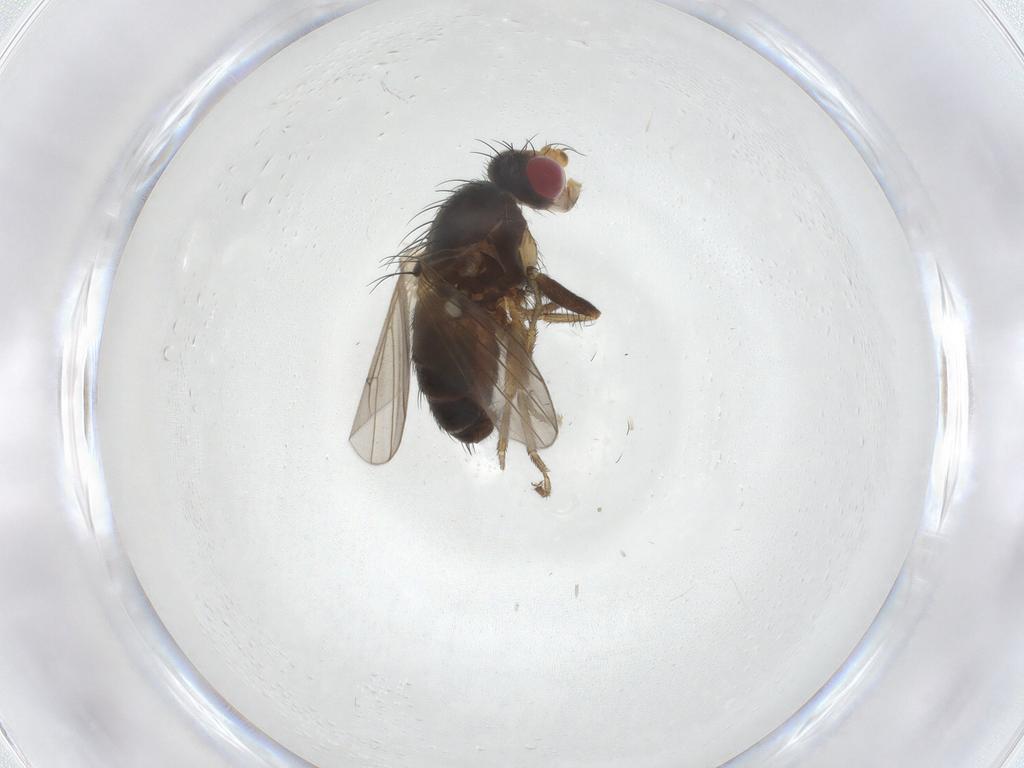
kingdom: Animalia
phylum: Arthropoda
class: Insecta
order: Diptera
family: Heleomyzidae
